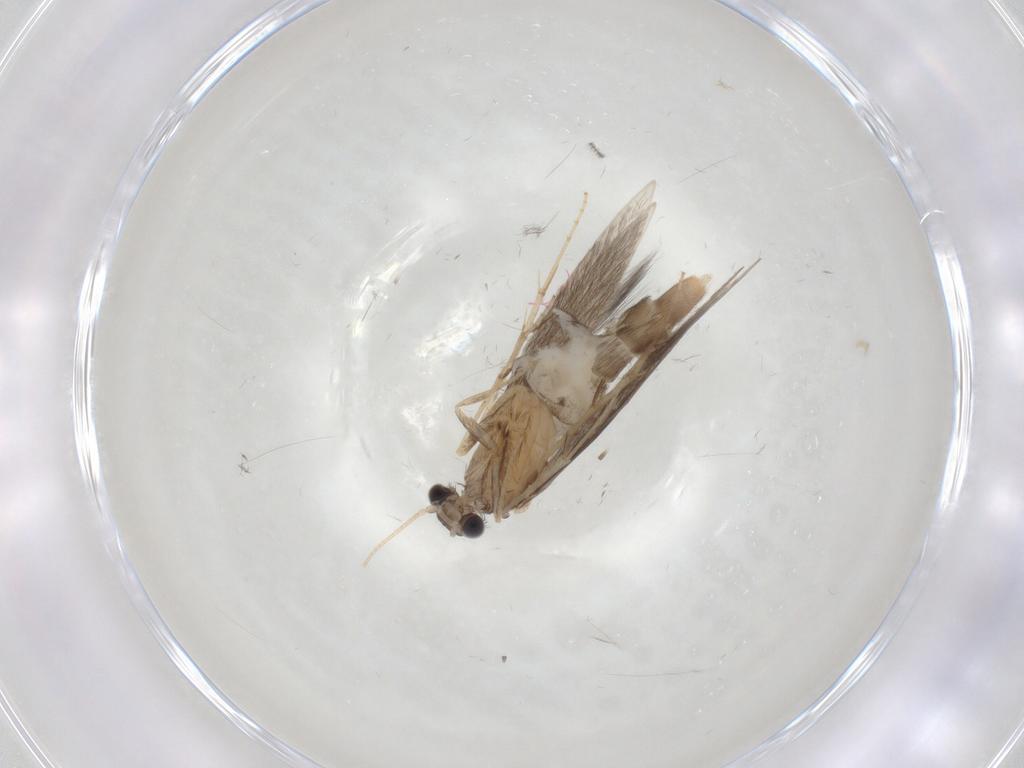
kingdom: Animalia
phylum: Arthropoda
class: Insecta
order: Trichoptera
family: Hydroptilidae
